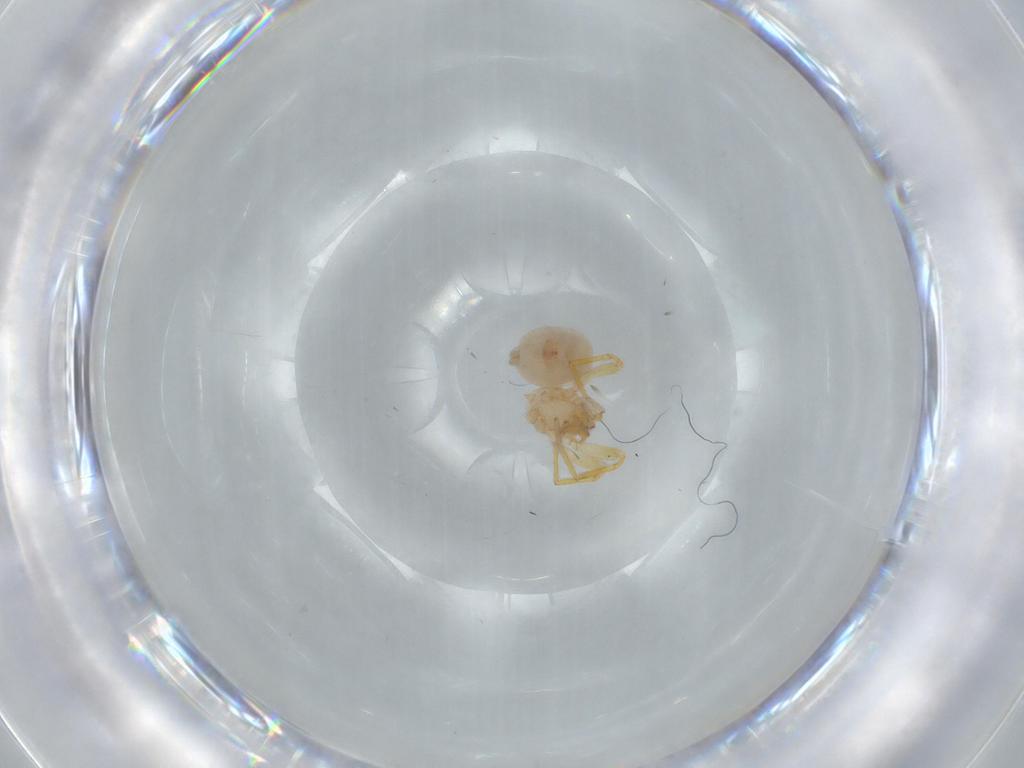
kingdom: Animalia
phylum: Arthropoda
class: Arachnida
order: Araneae
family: Oonopidae
